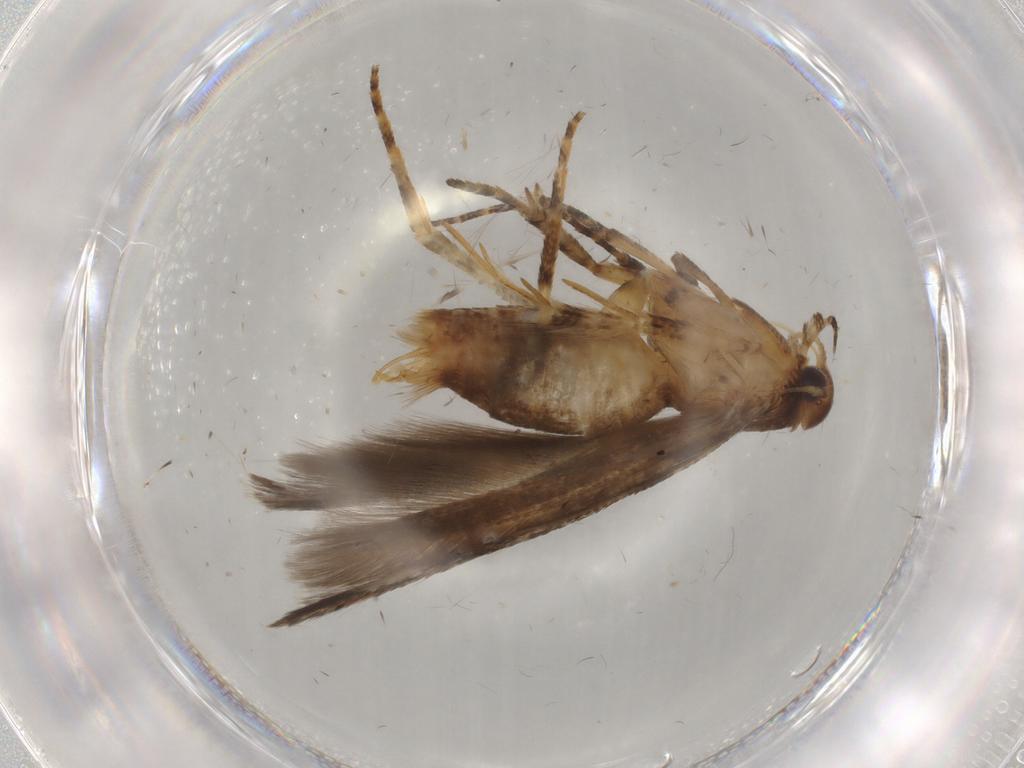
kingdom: Animalia
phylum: Arthropoda
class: Insecta
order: Lepidoptera
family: Gelechiidae
